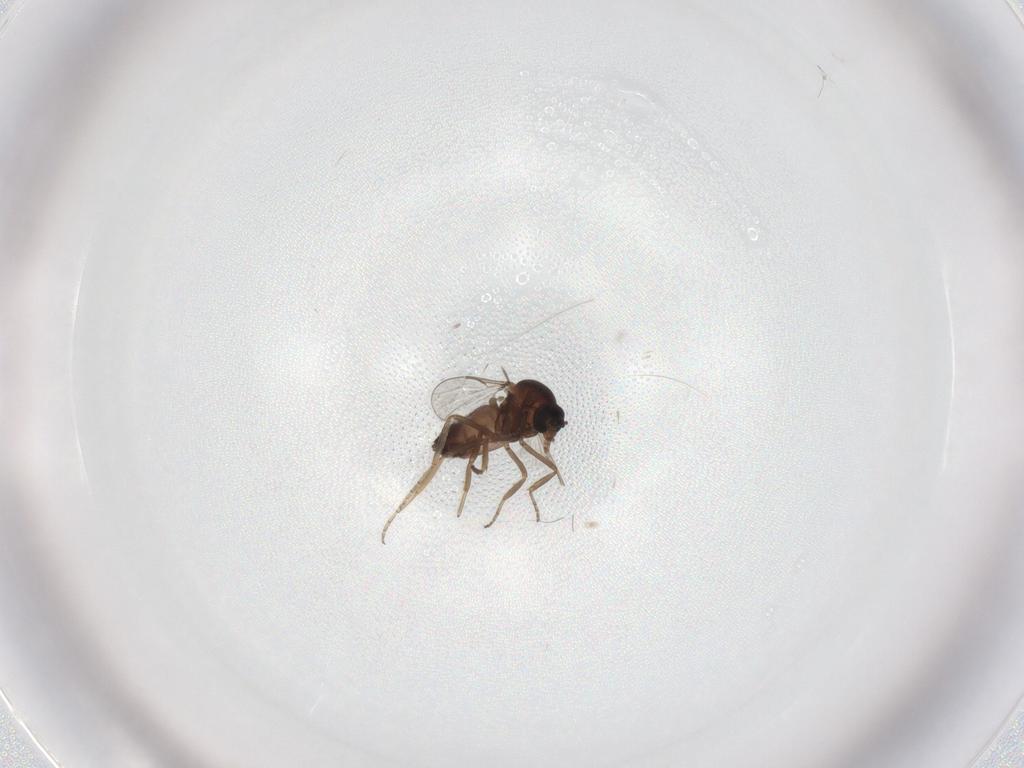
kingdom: Animalia
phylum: Arthropoda
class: Insecta
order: Diptera
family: Ceratopogonidae
